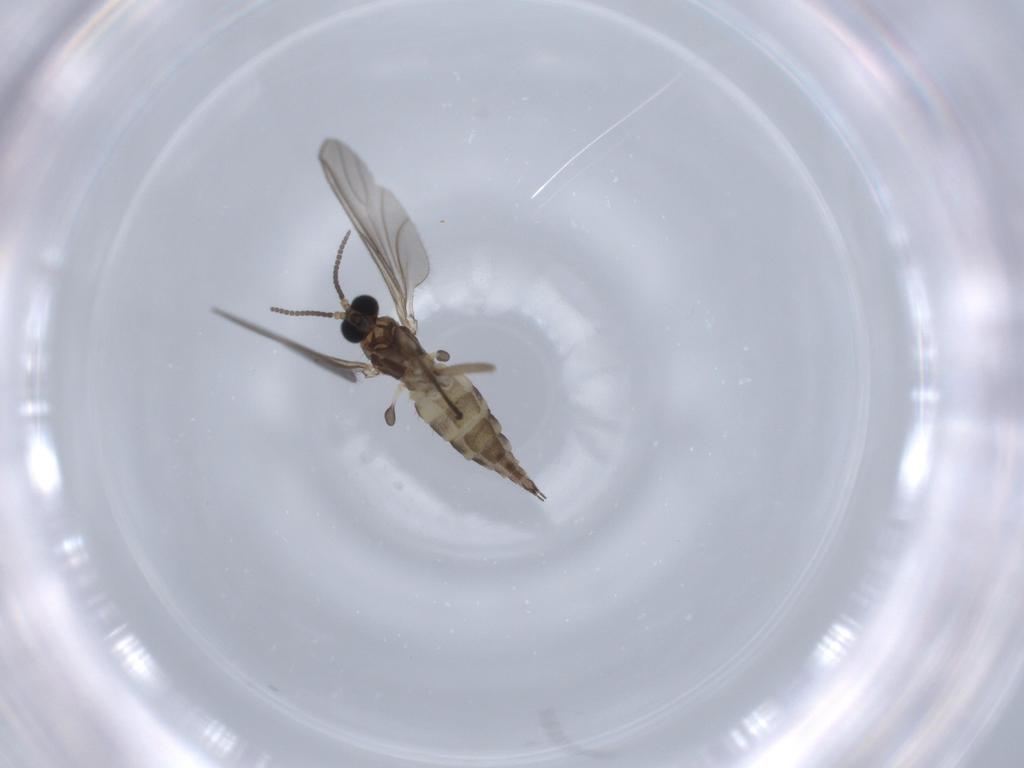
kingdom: Animalia
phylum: Arthropoda
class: Insecta
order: Diptera
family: Sciaridae
